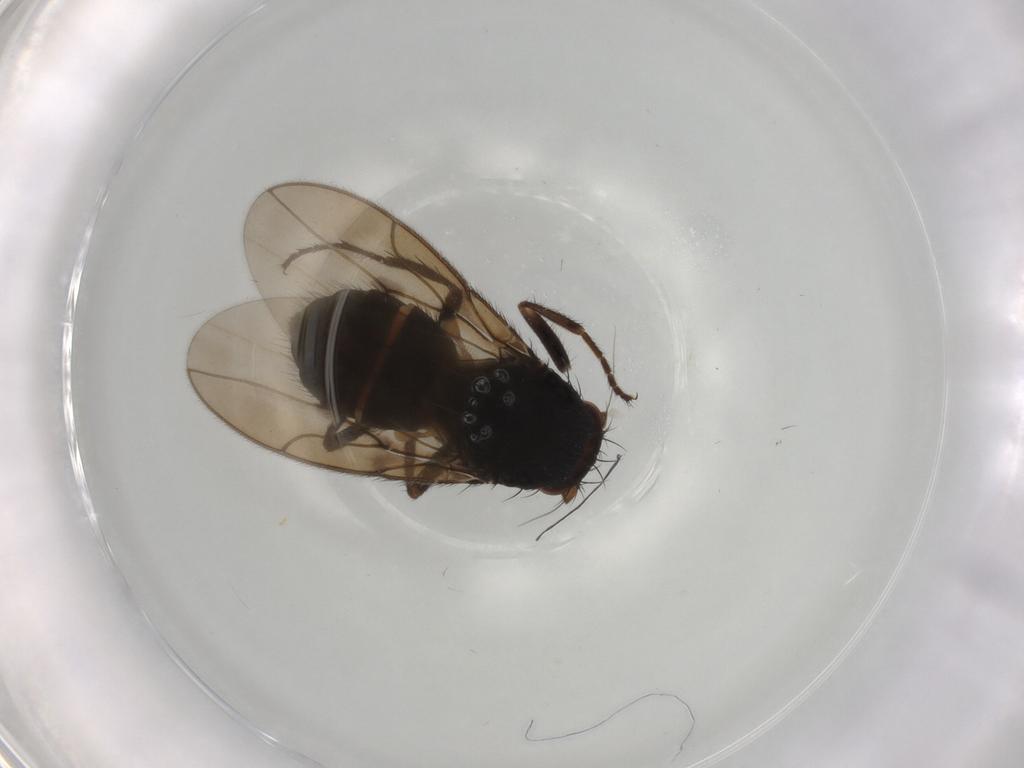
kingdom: Animalia
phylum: Arthropoda
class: Insecta
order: Diptera
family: Sphaeroceridae
